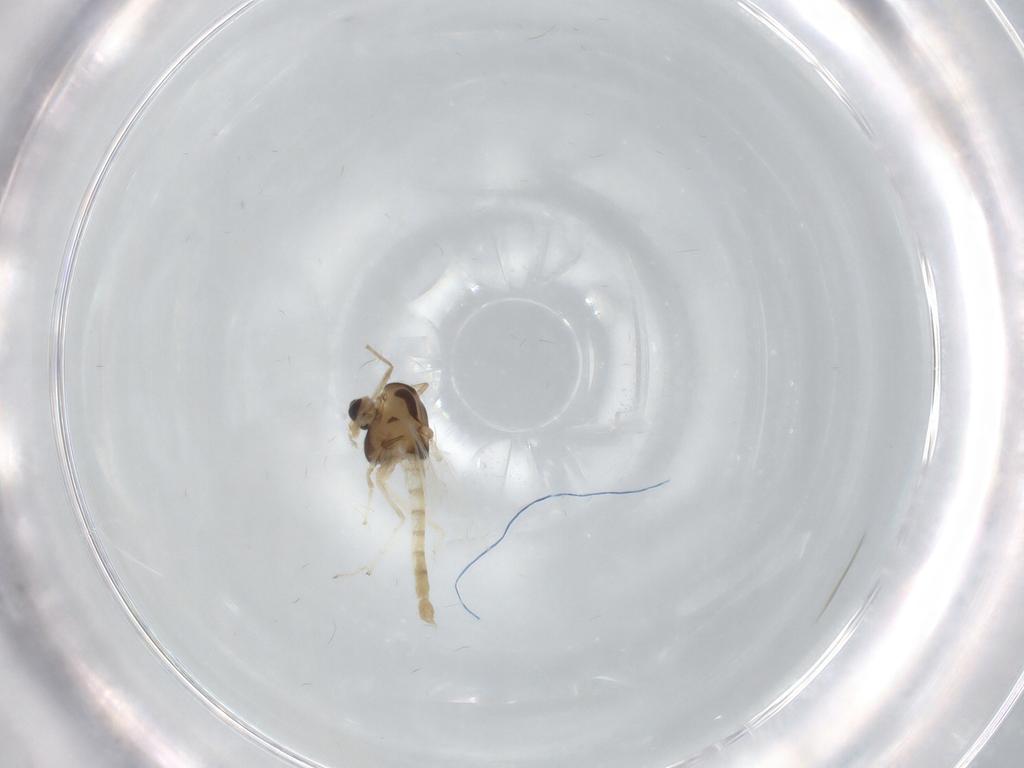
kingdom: Animalia
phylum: Arthropoda
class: Insecta
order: Diptera
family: Chironomidae
